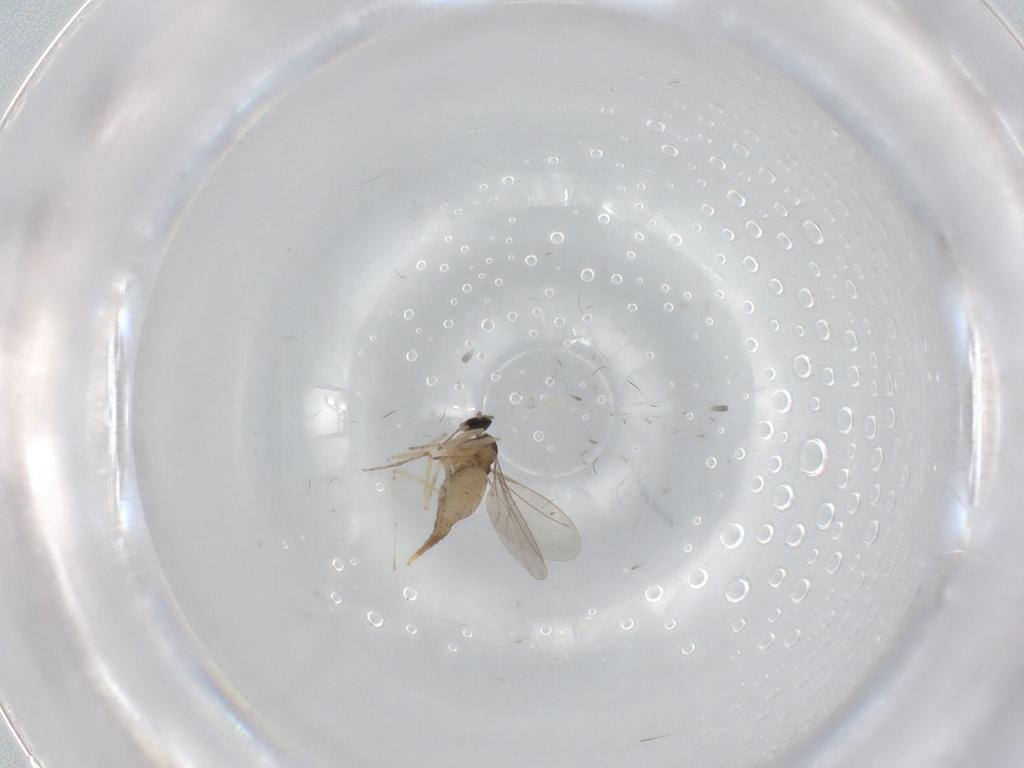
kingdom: Animalia
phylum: Arthropoda
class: Insecta
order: Diptera
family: Cecidomyiidae
